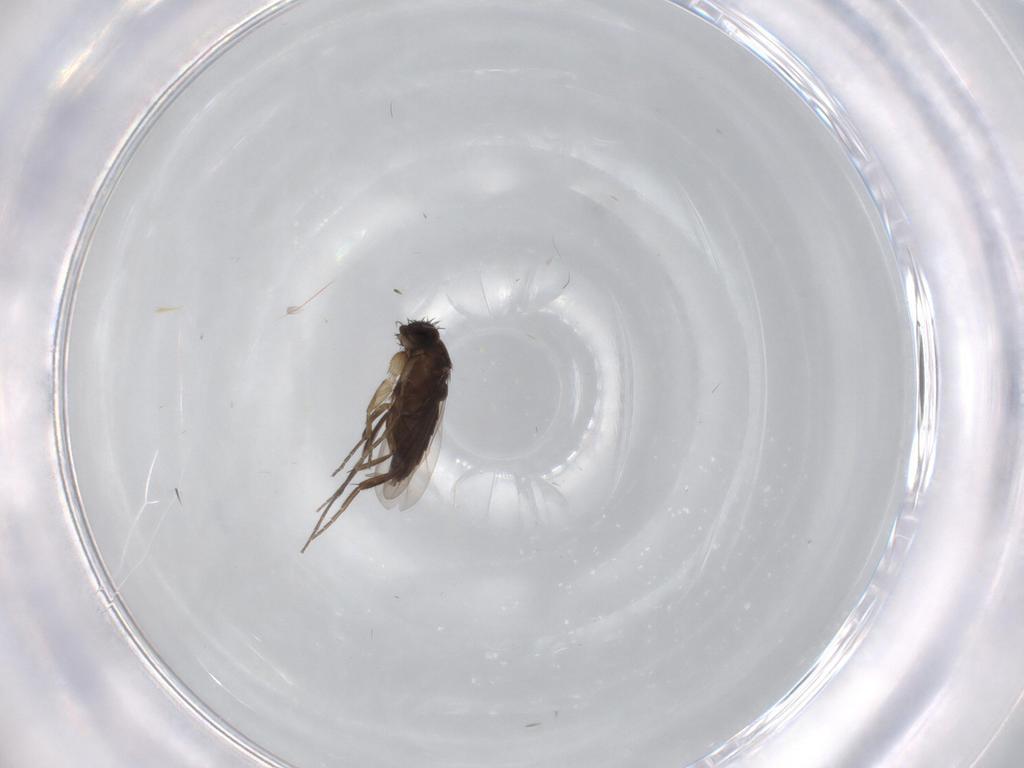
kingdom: Animalia
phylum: Arthropoda
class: Insecta
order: Diptera
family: Phoridae
